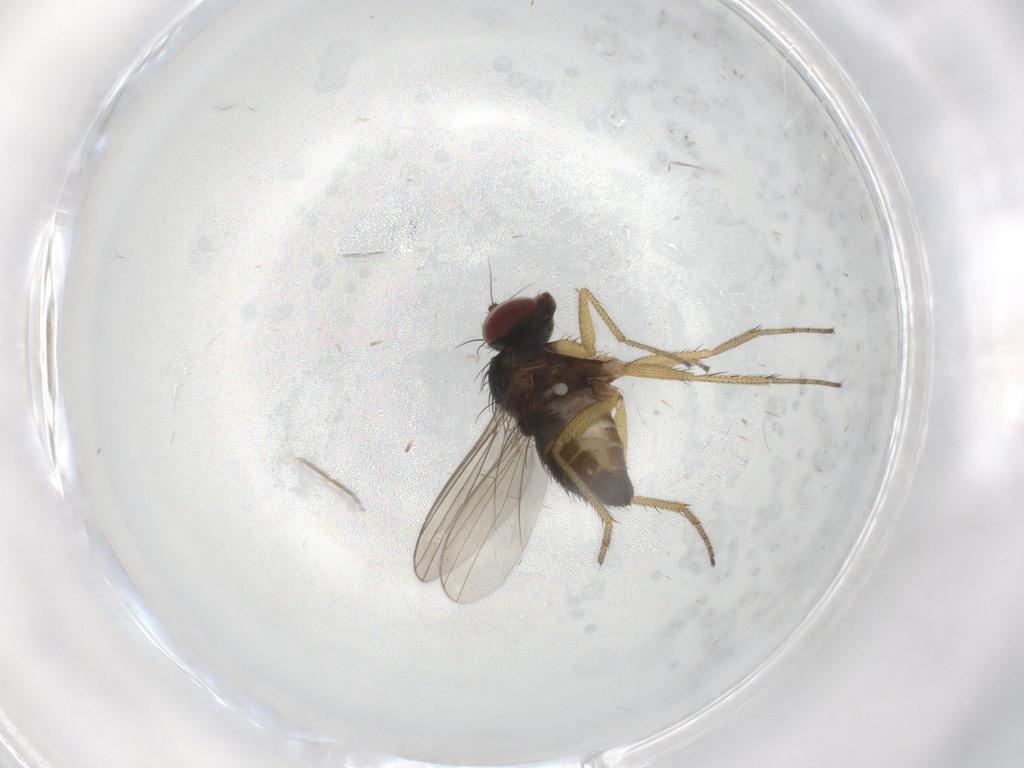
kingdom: Animalia
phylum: Arthropoda
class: Insecta
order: Diptera
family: Dolichopodidae
